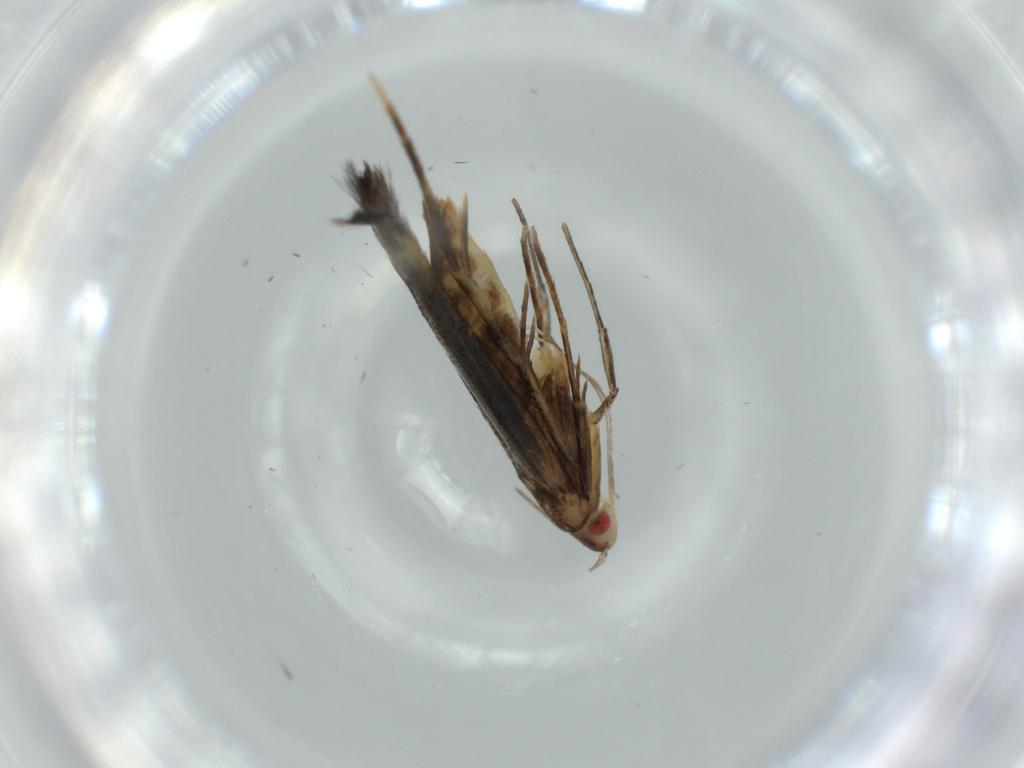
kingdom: Animalia
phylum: Arthropoda
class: Insecta
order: Lepidoptera
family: Cosmopterigidae
